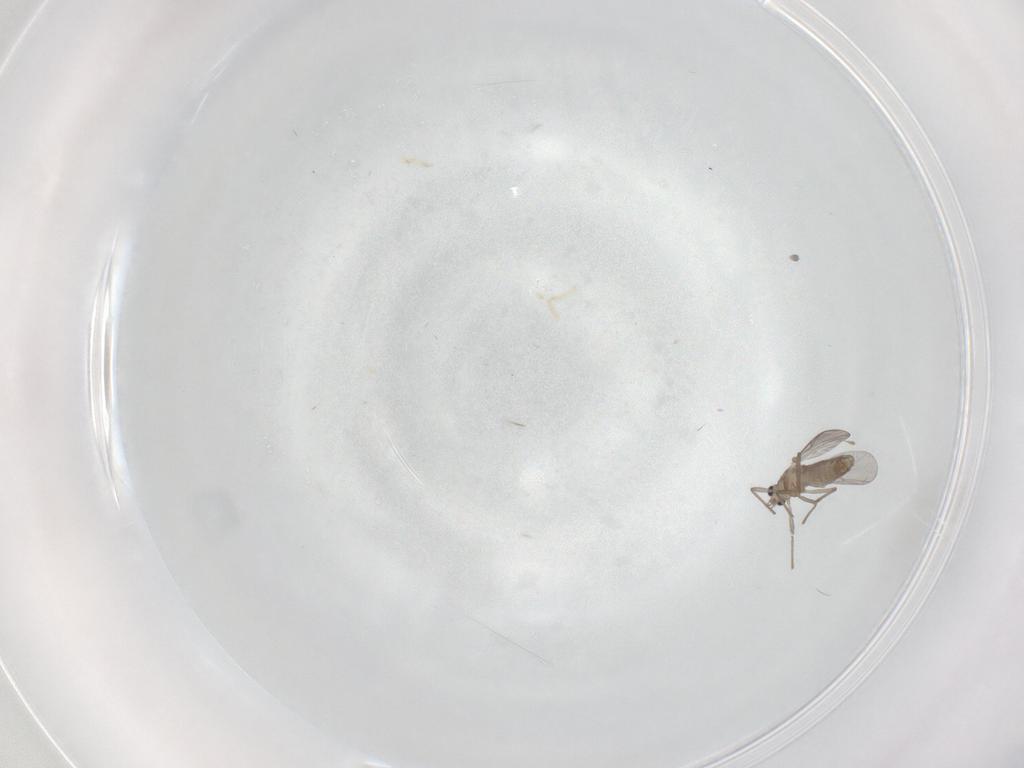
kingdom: Animalia
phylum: Arthropoda
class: Insecta
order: Diptera
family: Chironomidae
